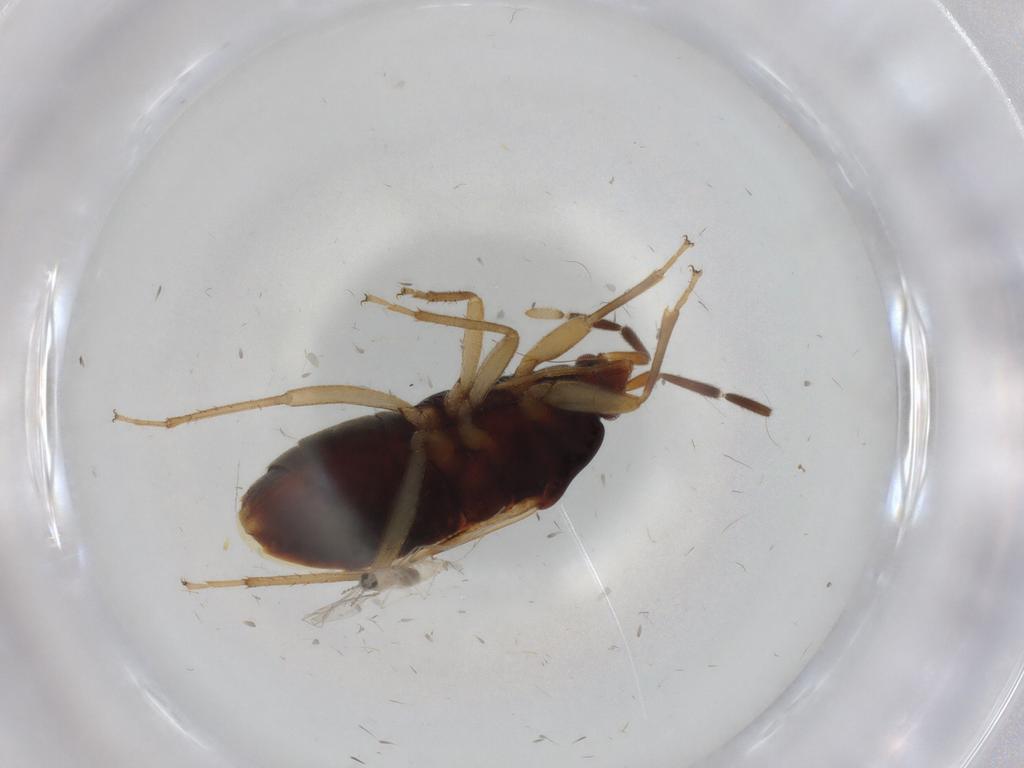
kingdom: Animalia
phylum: Arthropoda
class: Insecta
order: Hemiptera
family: Rhyparochromidae
